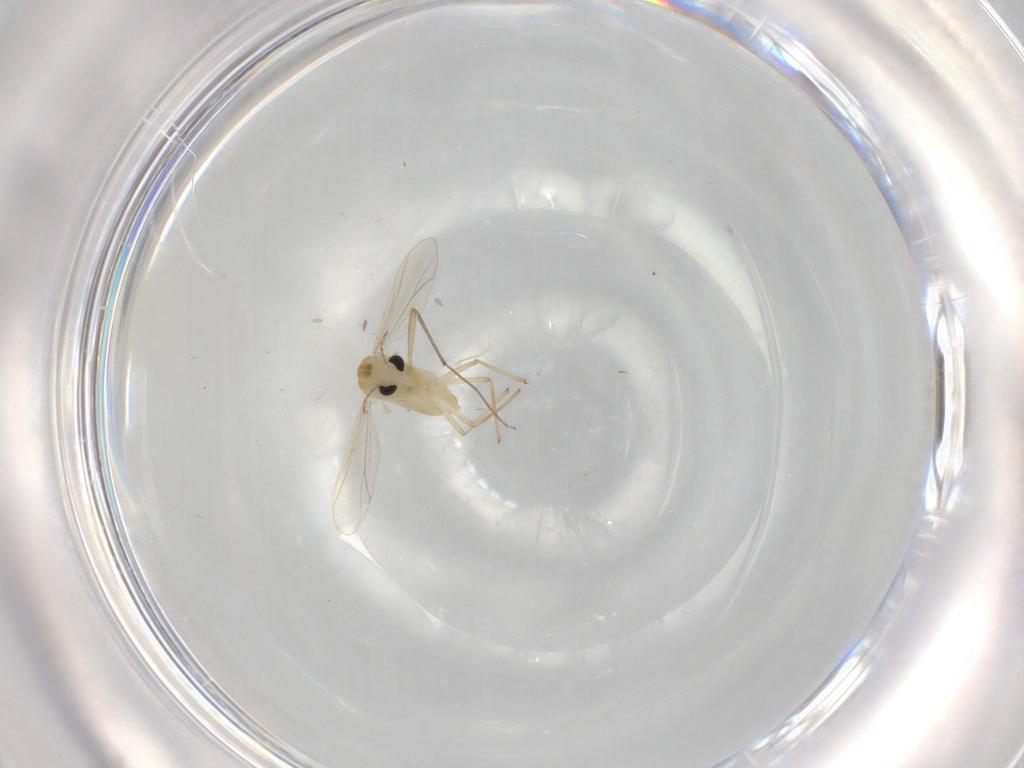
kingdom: Animalia
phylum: Arthropoda
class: Insecta
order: Diptera
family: Chironomidae
